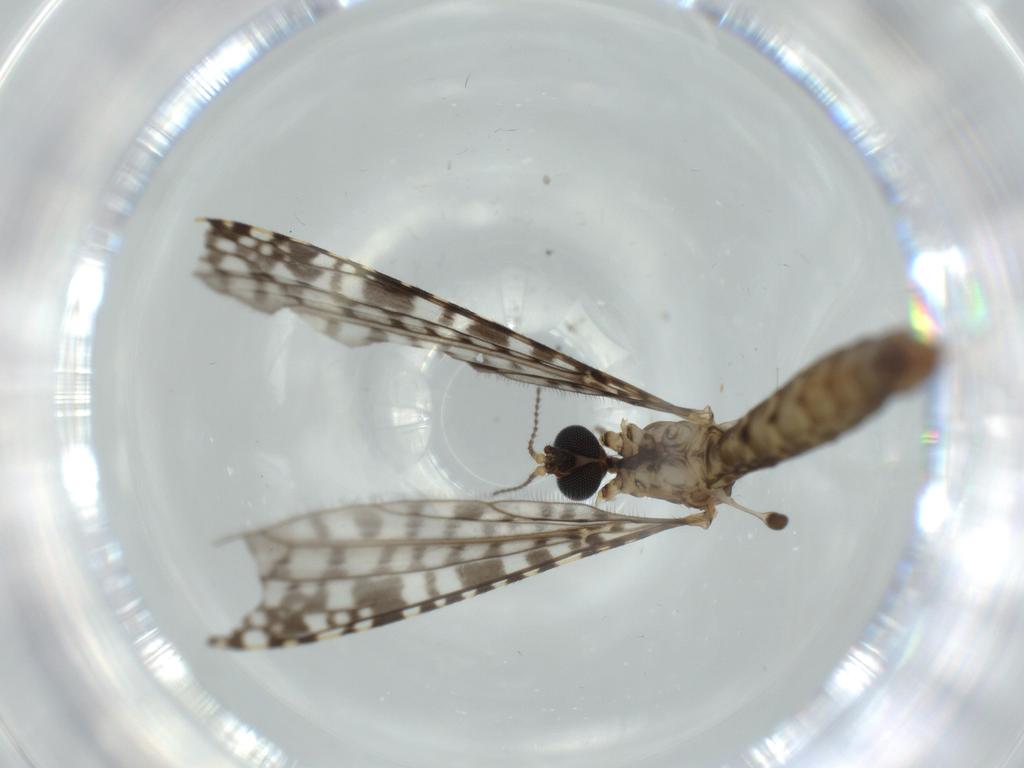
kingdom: Animalia
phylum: Arthropoda
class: Insecta
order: Diptera
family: Sciaridae
